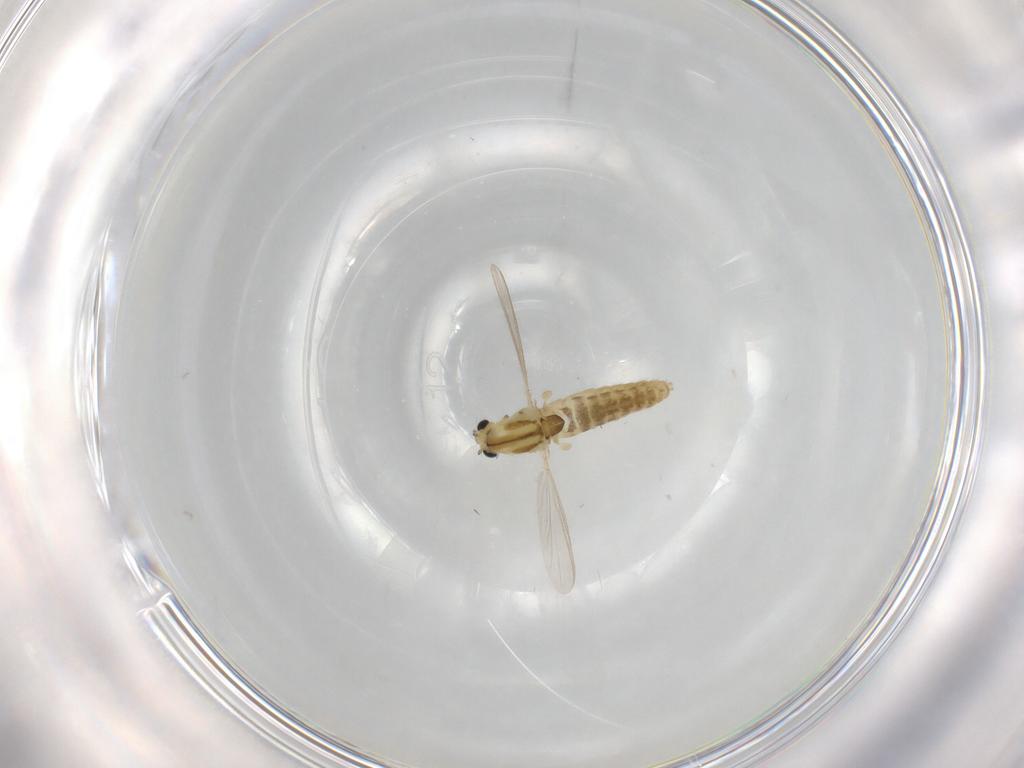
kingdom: Animalia
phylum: Arthropoda
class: Insecta
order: Diptera
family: Chironomidae
